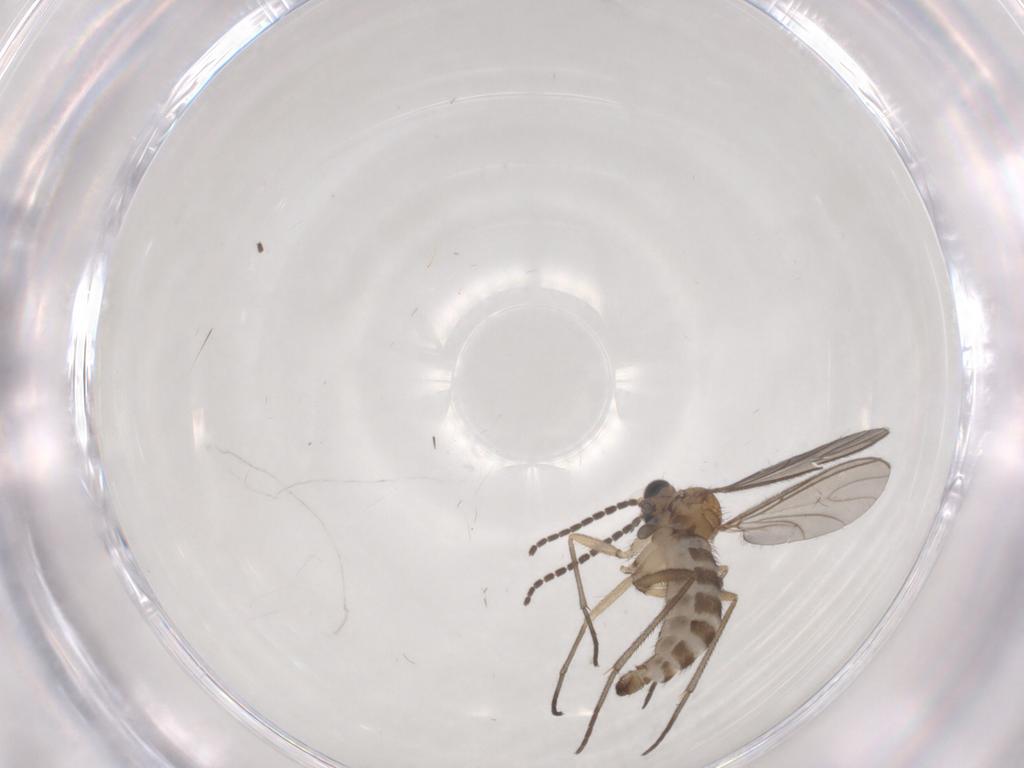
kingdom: Animalia
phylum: Arthropoda
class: Insecta
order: Diptera
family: Sciaridae
